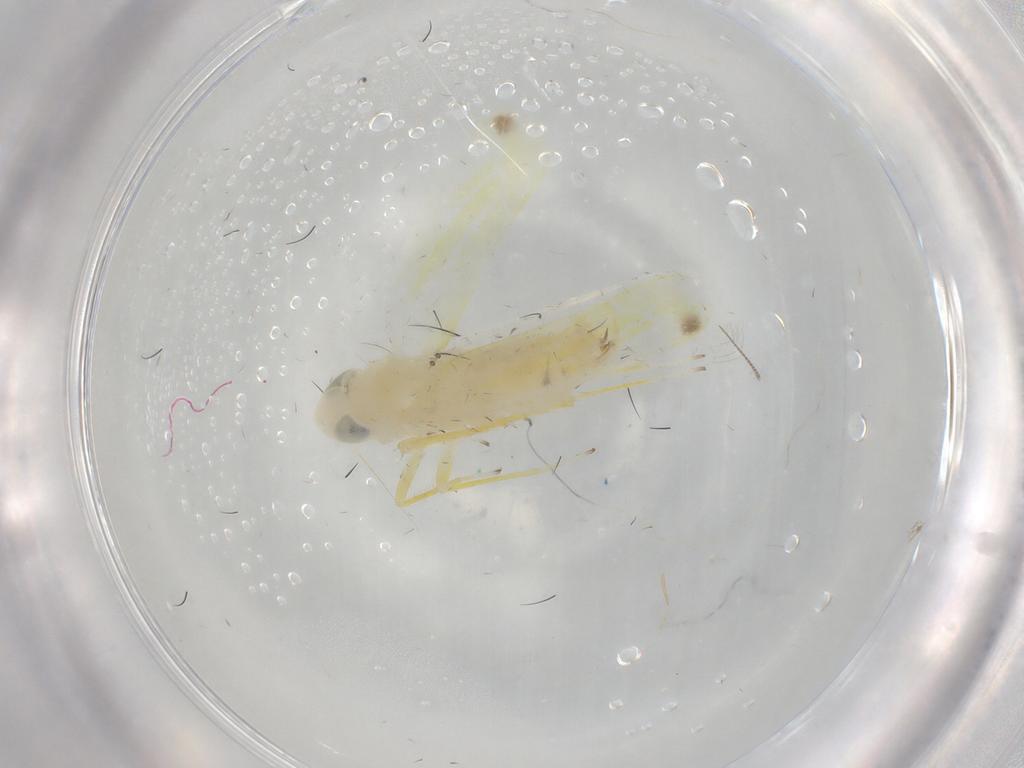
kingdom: Animalia
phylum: Arthropoda
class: Insecta
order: Hemiptera
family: Cicadellidae
